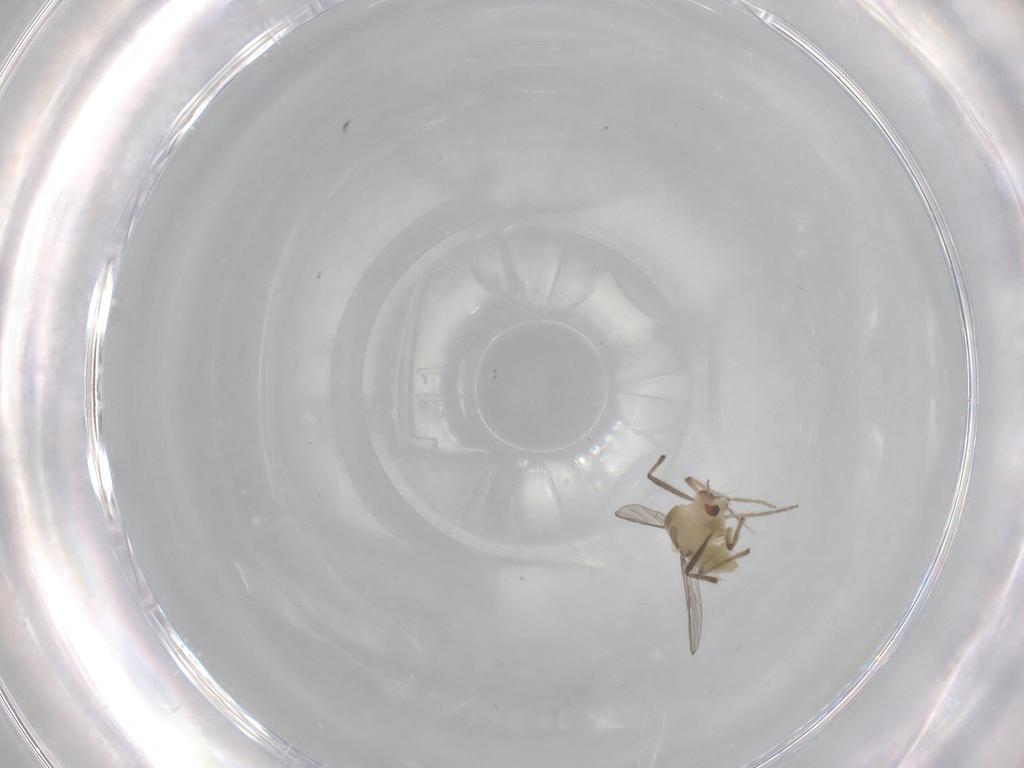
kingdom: Animalia
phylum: Arthropoda
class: Insecta
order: Diptera
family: Chironomidae
